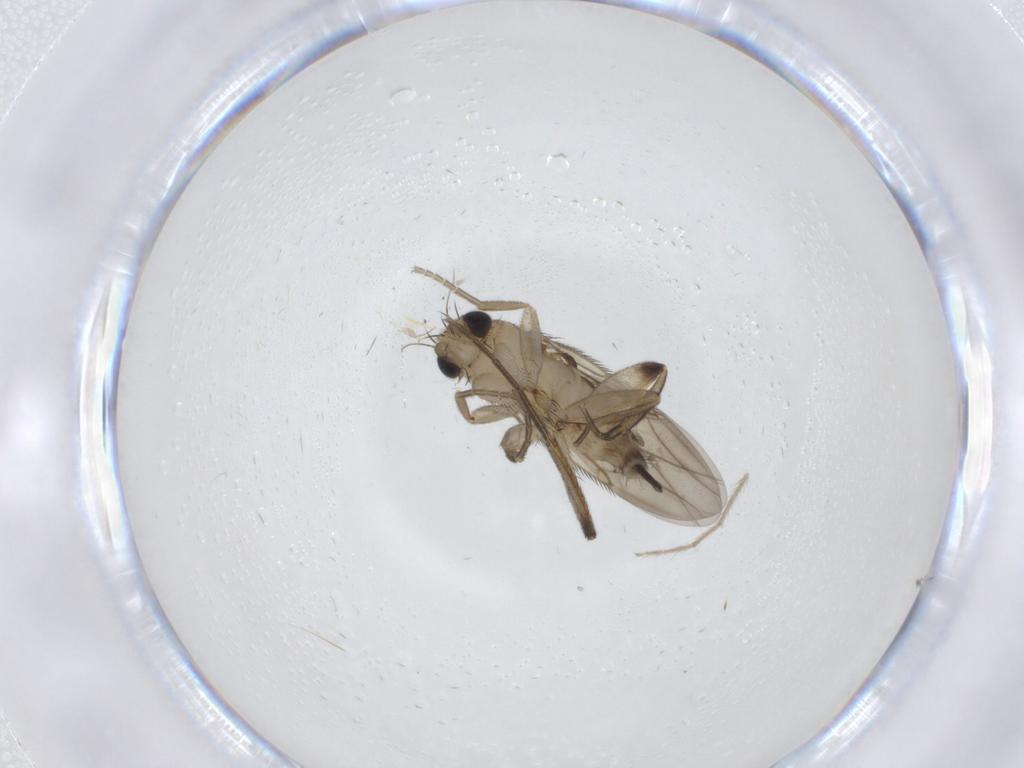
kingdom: Animalia
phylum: Arthropoda
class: Insecta
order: Diptera
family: Phoridae
